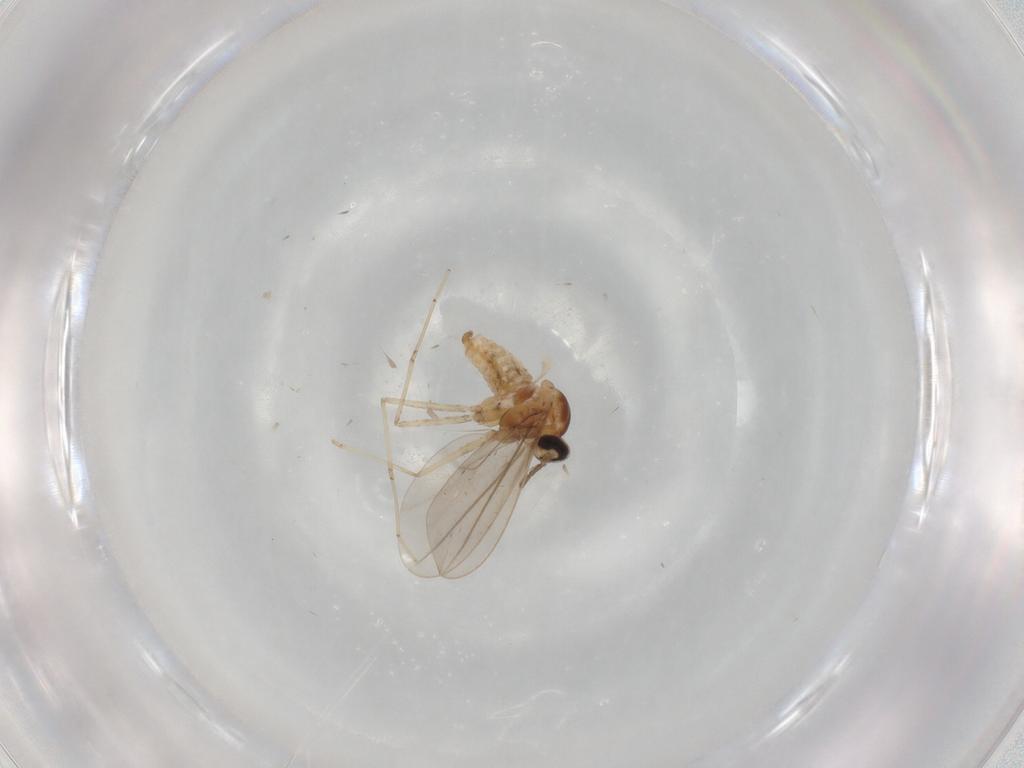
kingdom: Animalia
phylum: Arthropoda
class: Insecta
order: Diptera
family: Cecidomyiidae
